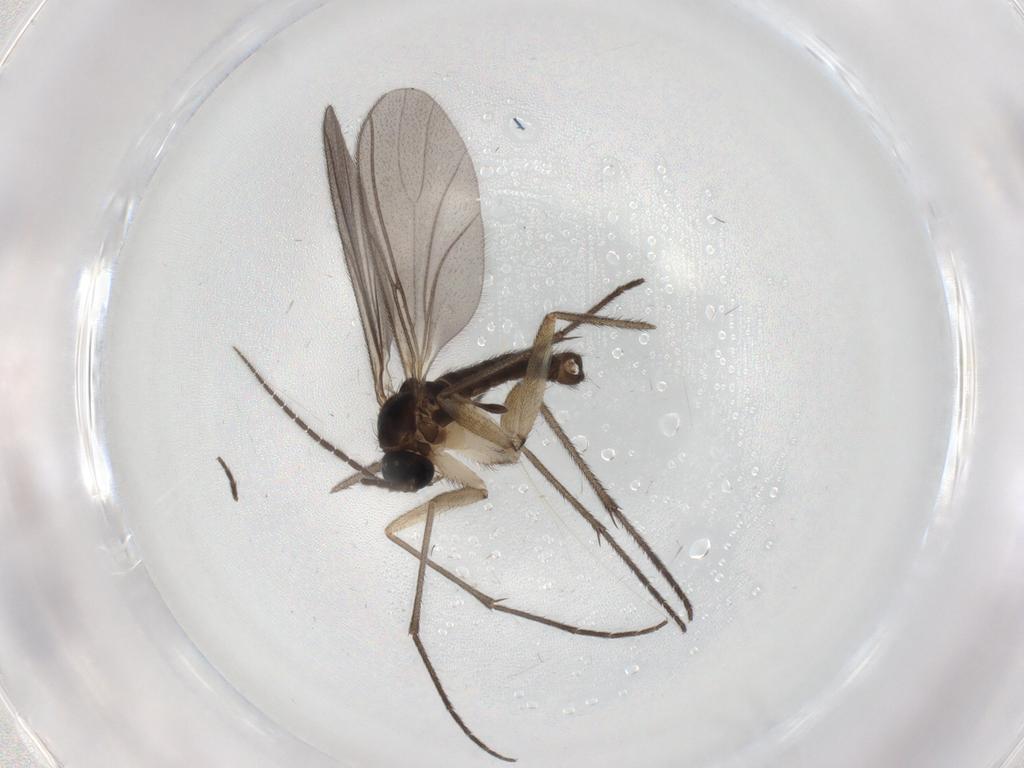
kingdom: Animalia
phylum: Arthropoda
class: Insecta
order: Diptera
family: Sciaridae
